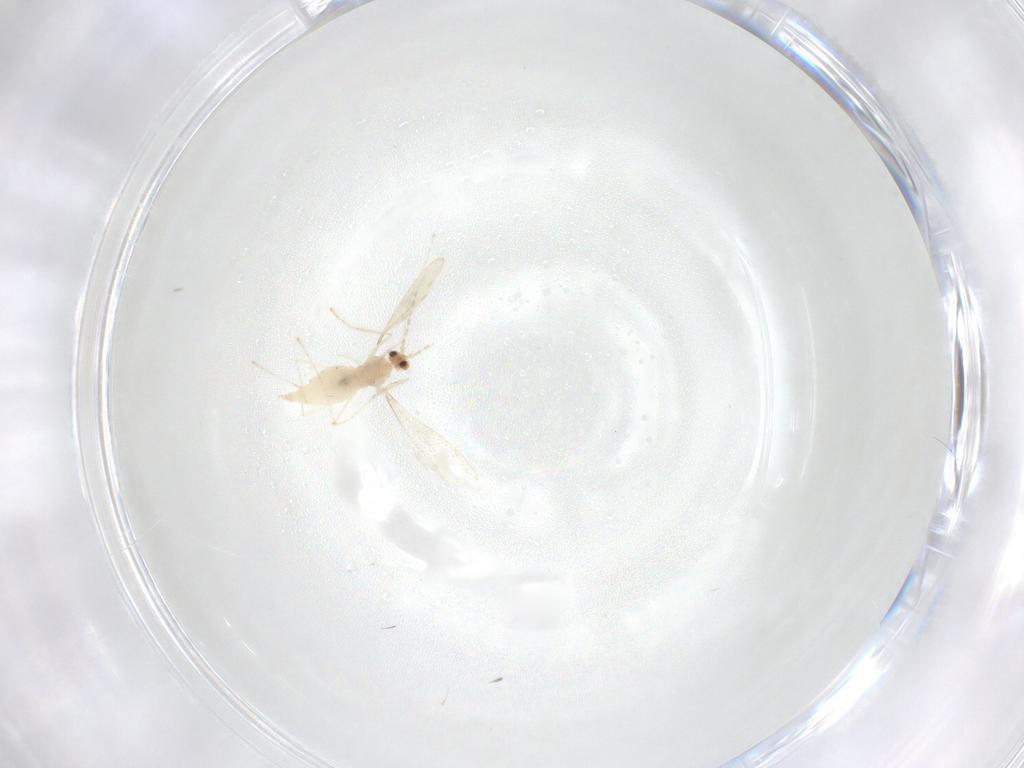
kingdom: Animalia
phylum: Arthropoda
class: Insecta
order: Diptera
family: Cecidomyiidae
